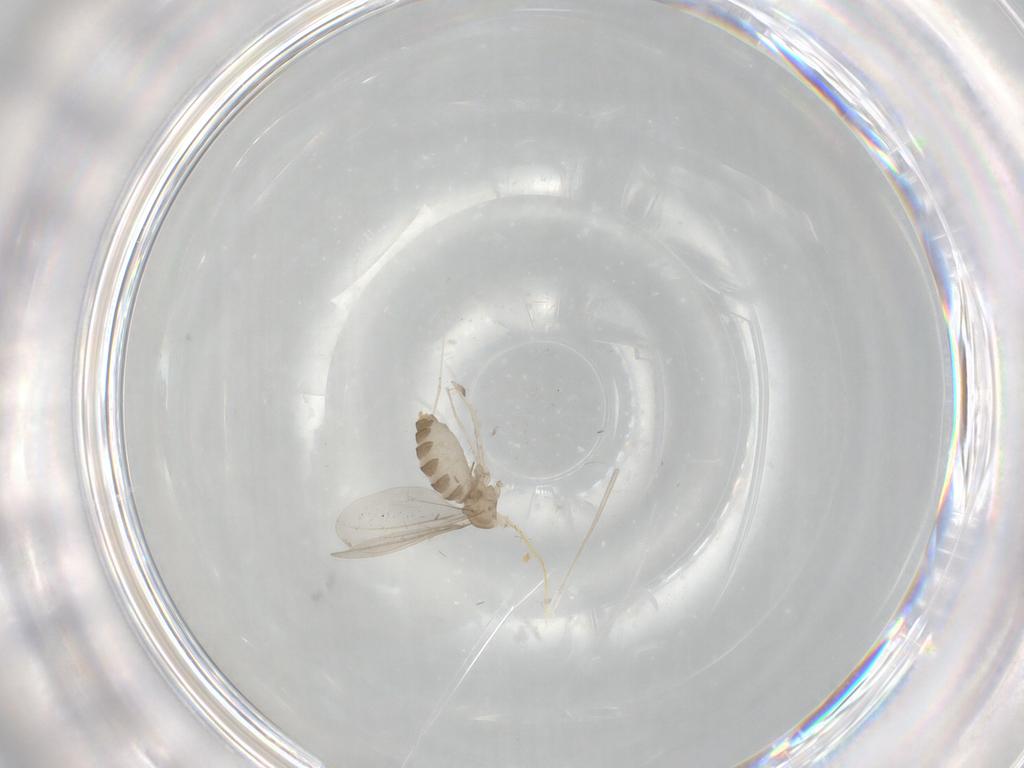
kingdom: Animalia
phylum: Arthropoda
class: Insecta
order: Diptera
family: Cecidomyiidae
